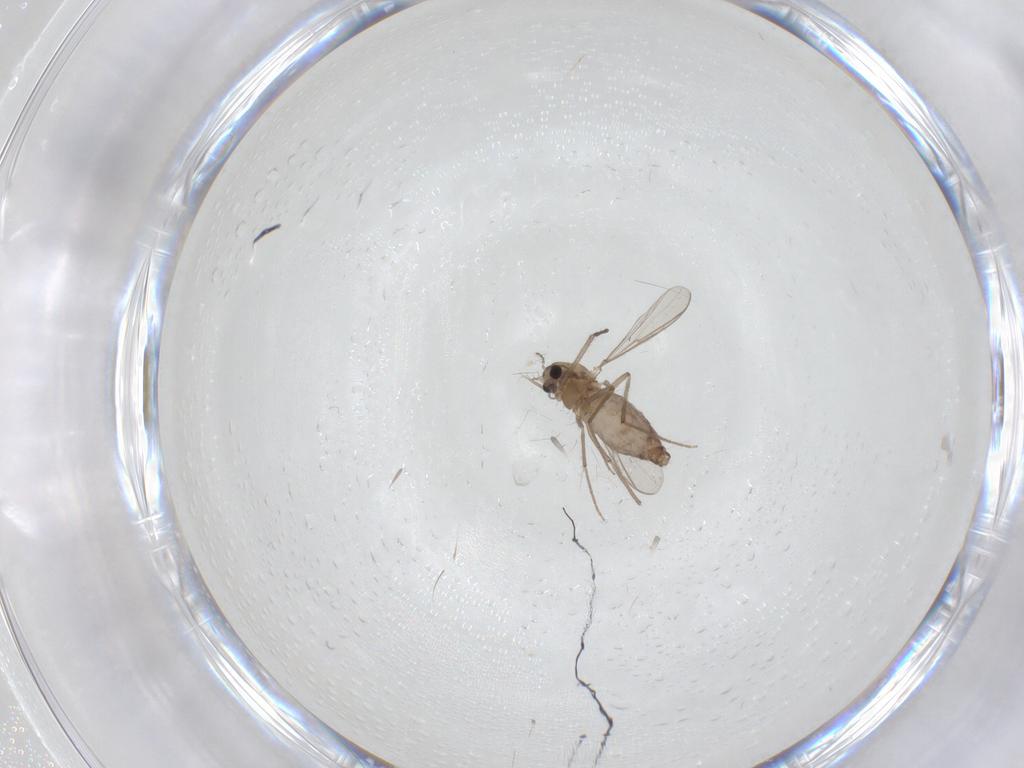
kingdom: Animalia
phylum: Arthropoda
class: Insecta
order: Diptera
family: Chironomidae
